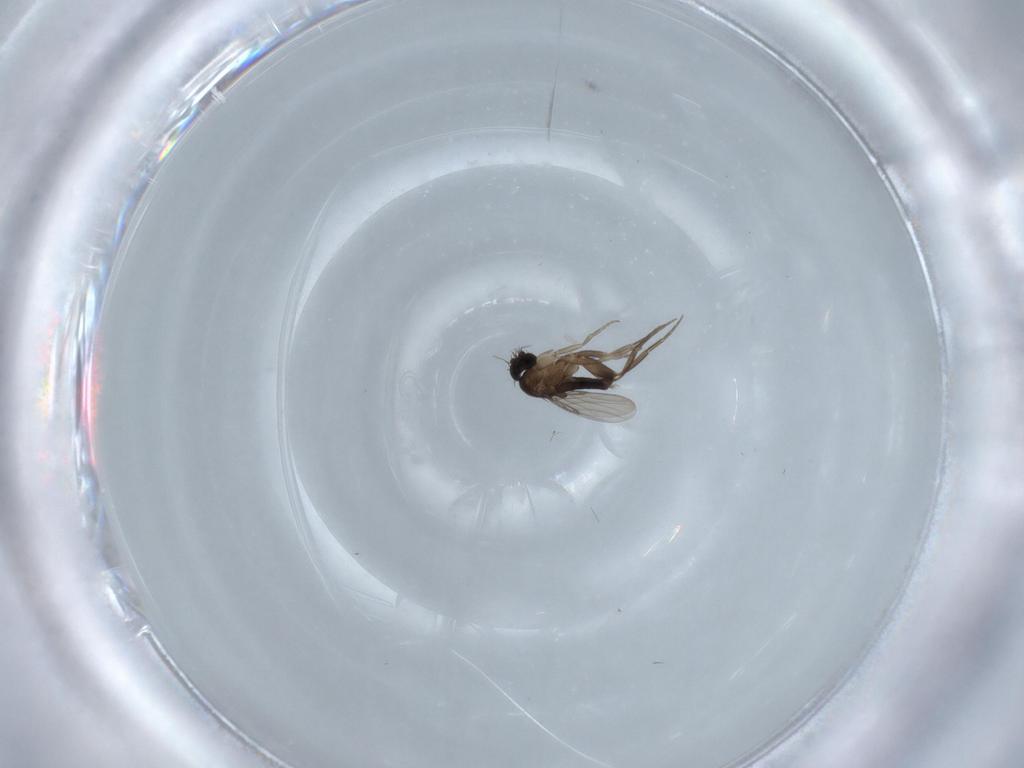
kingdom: Animalia
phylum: Arthropoda
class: Insecta
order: Diptera
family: Phoridae
